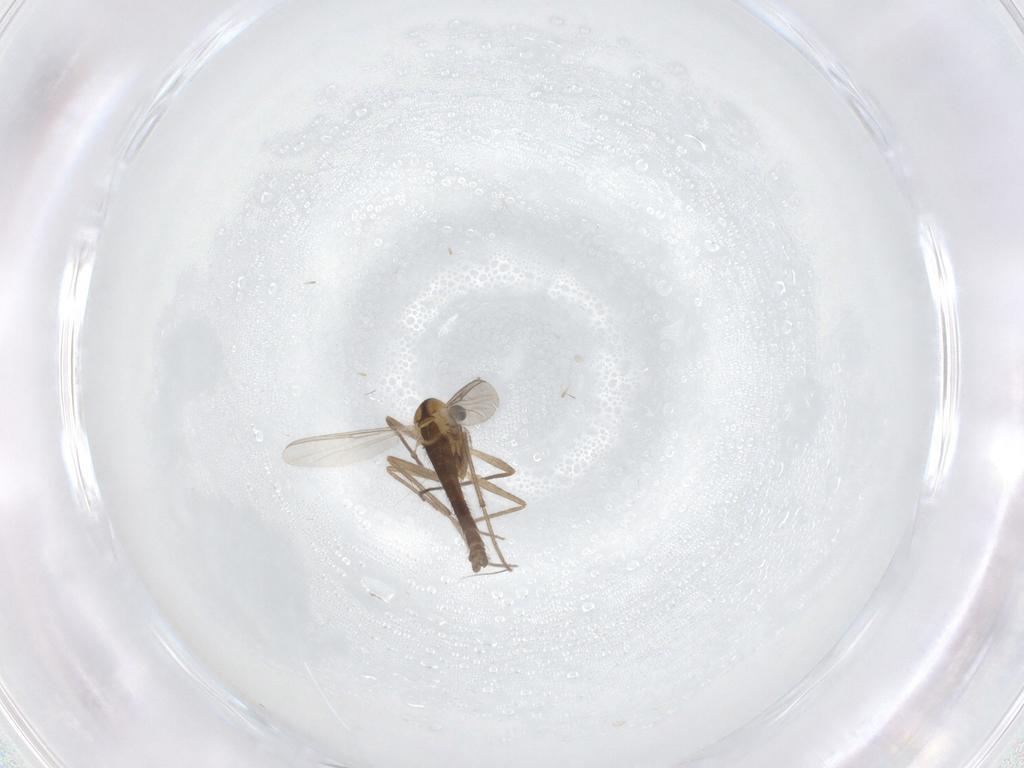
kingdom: Animalia
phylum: Arthropoda
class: Insecta
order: Diptera
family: Chironomidae
